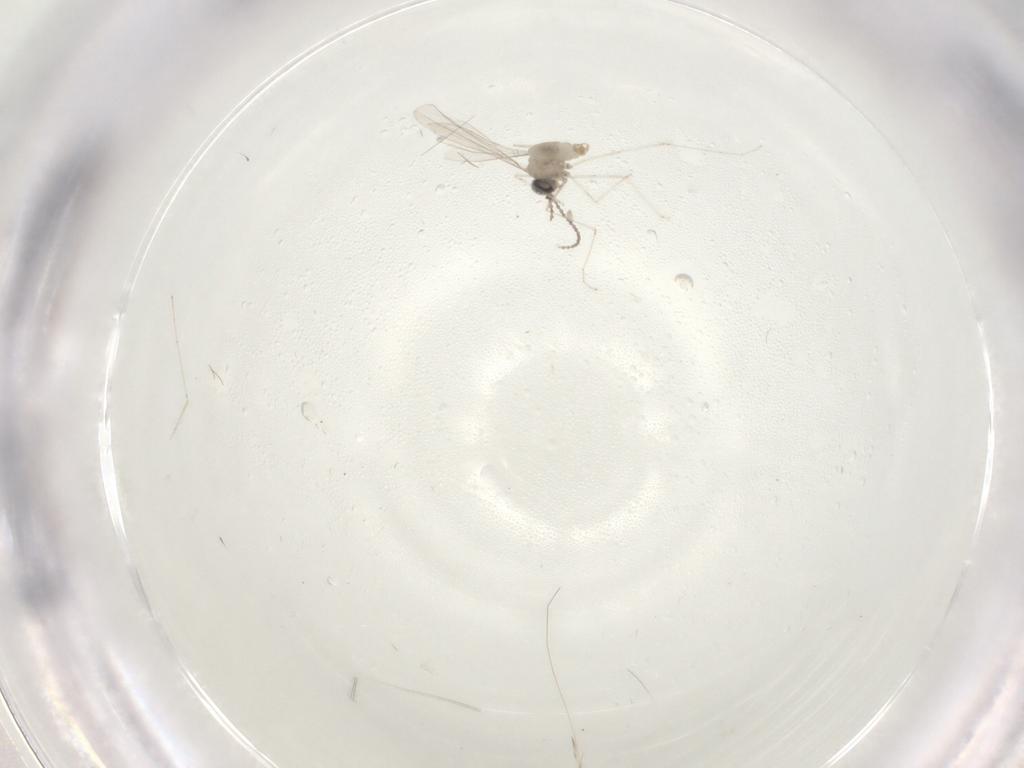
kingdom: Animalia
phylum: Arthropoda
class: Insecta
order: Diptera
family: Cecidomyiidae
